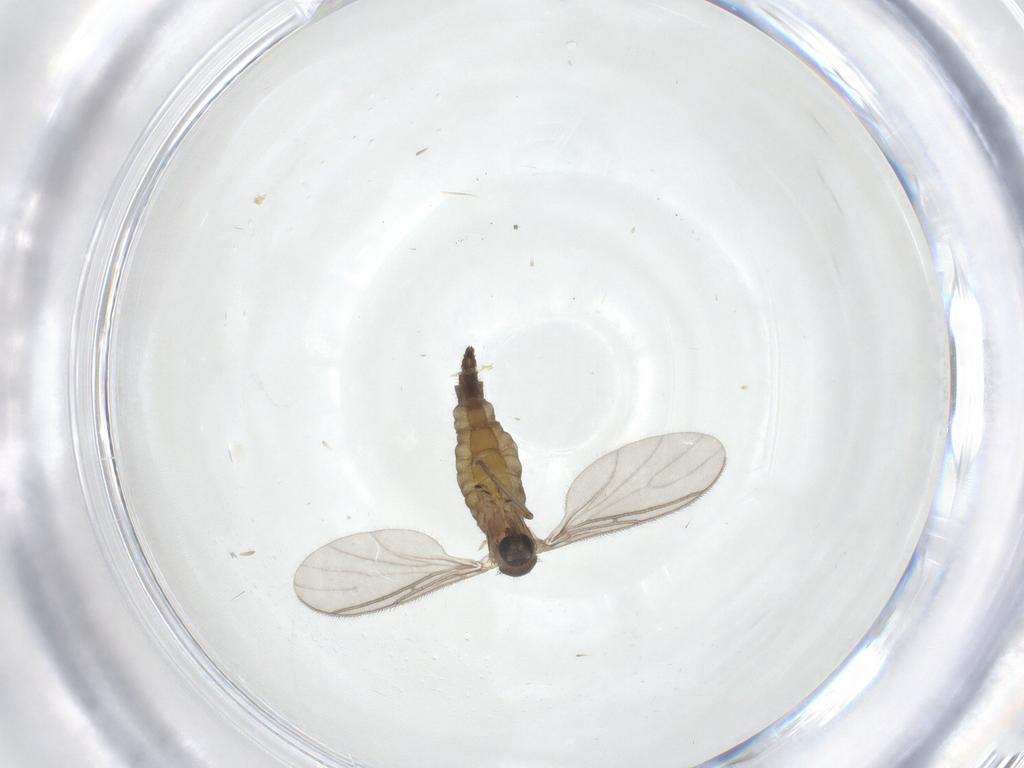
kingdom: Animalia
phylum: Arthropoda
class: Insecta
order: Diptera
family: Sciaridae
